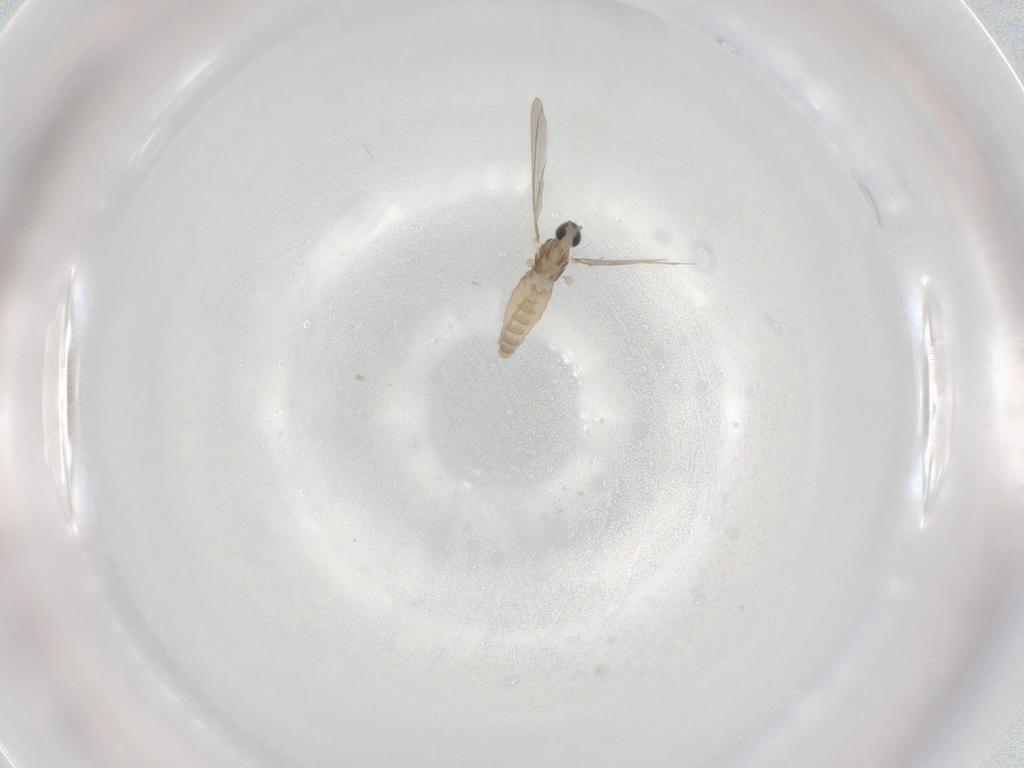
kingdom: Animalia
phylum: Arthropoda
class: Insecta
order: Diptera
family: Cecidomyiidae
